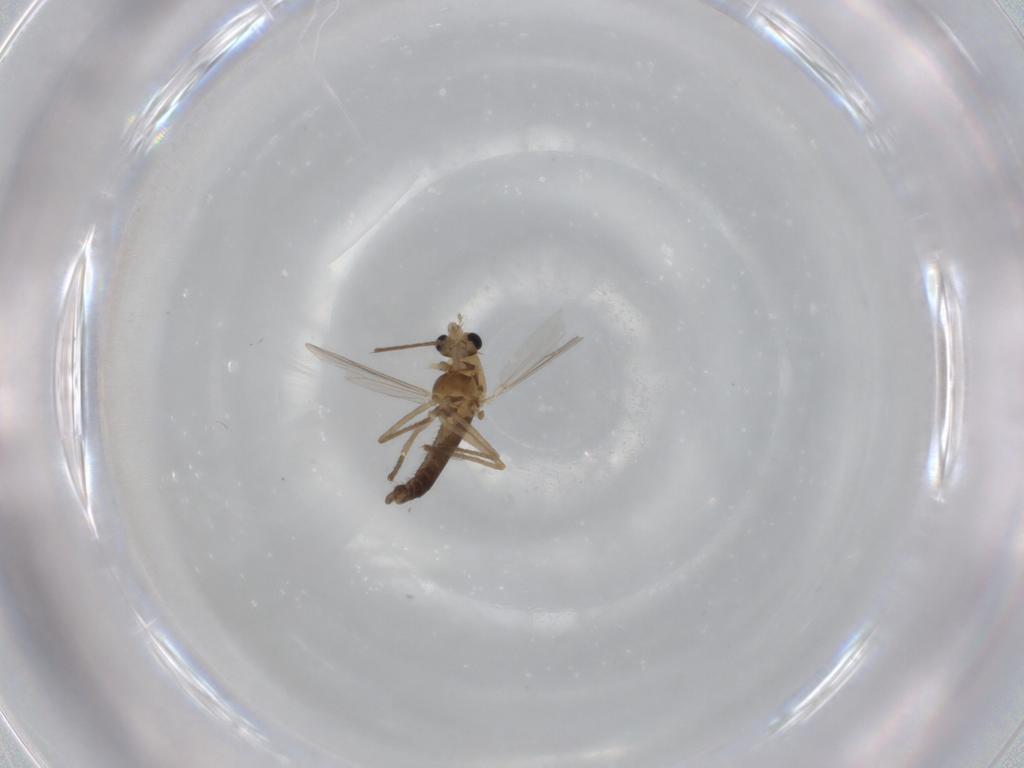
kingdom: Animalia
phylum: Arthropoda
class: Insecta
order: Diptera
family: Chironomidae
